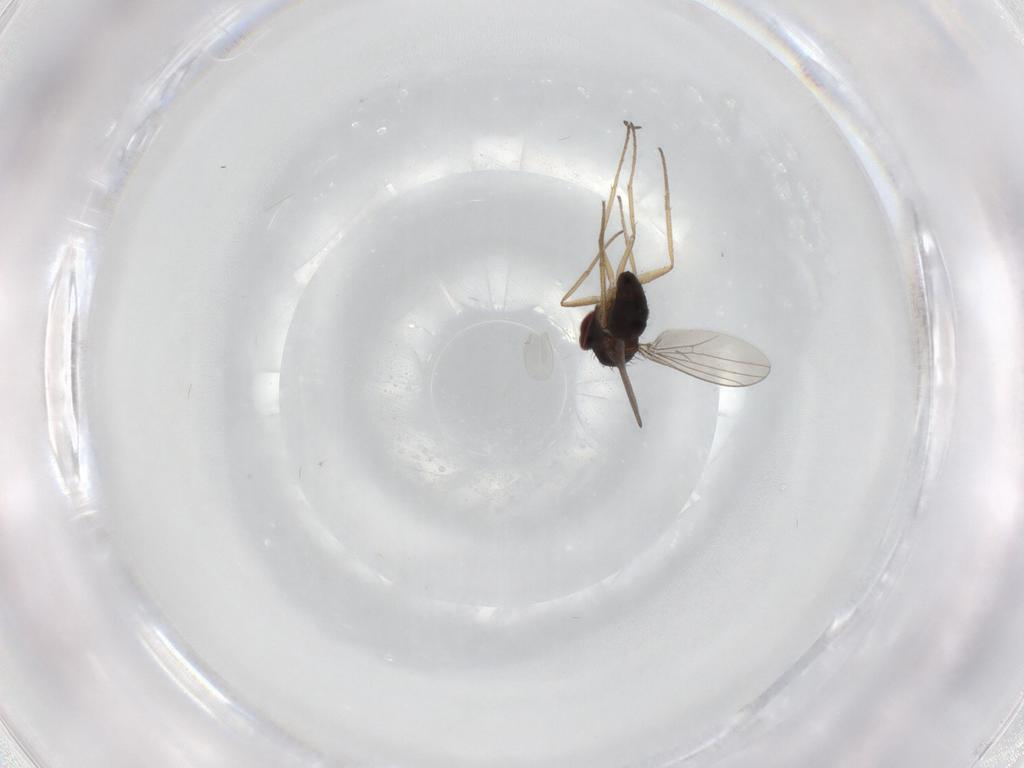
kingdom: Animalia
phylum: Arthropoda
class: Insecta
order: Diptera
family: Dolichopodidae
